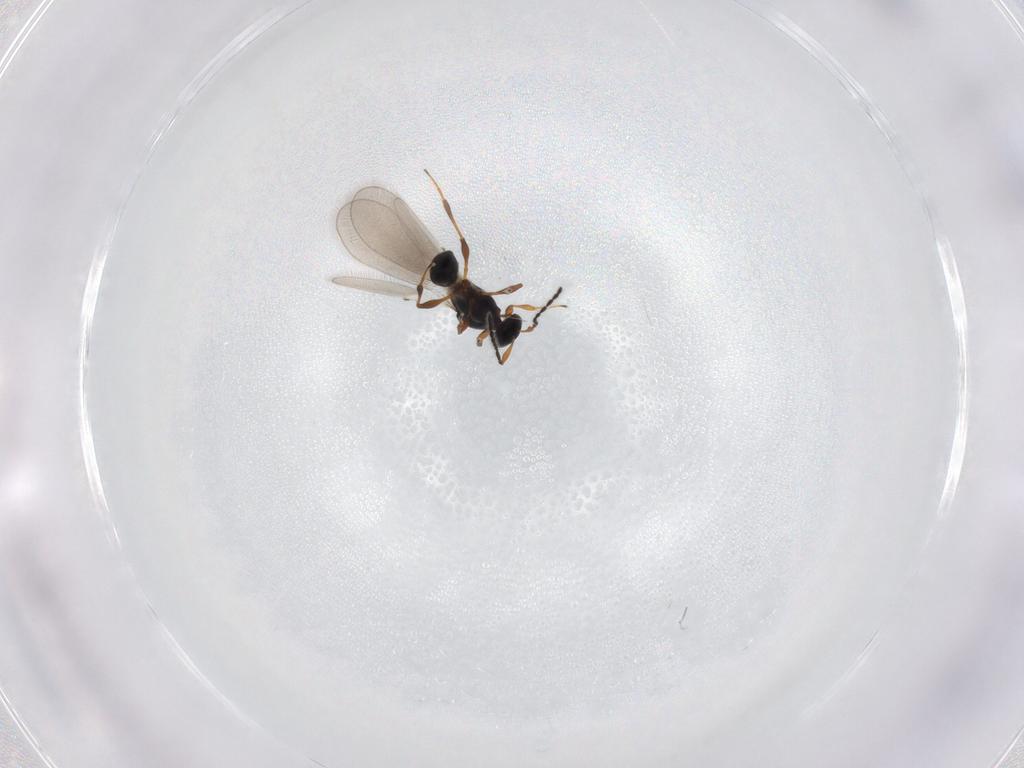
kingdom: Animalia
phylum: Arthropoda
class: Insecta
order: Hymenoptera
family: Platygastridae
